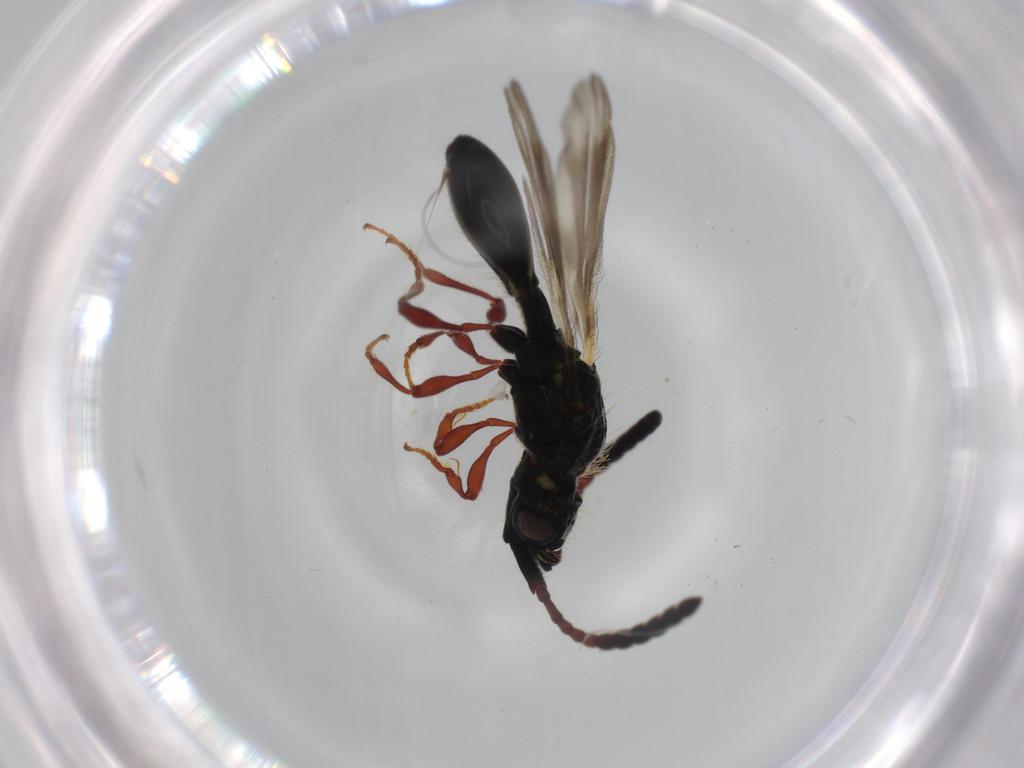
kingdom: Animalia
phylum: Arthropoda
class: Insecta
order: Hymenoptera
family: Diapriidae
